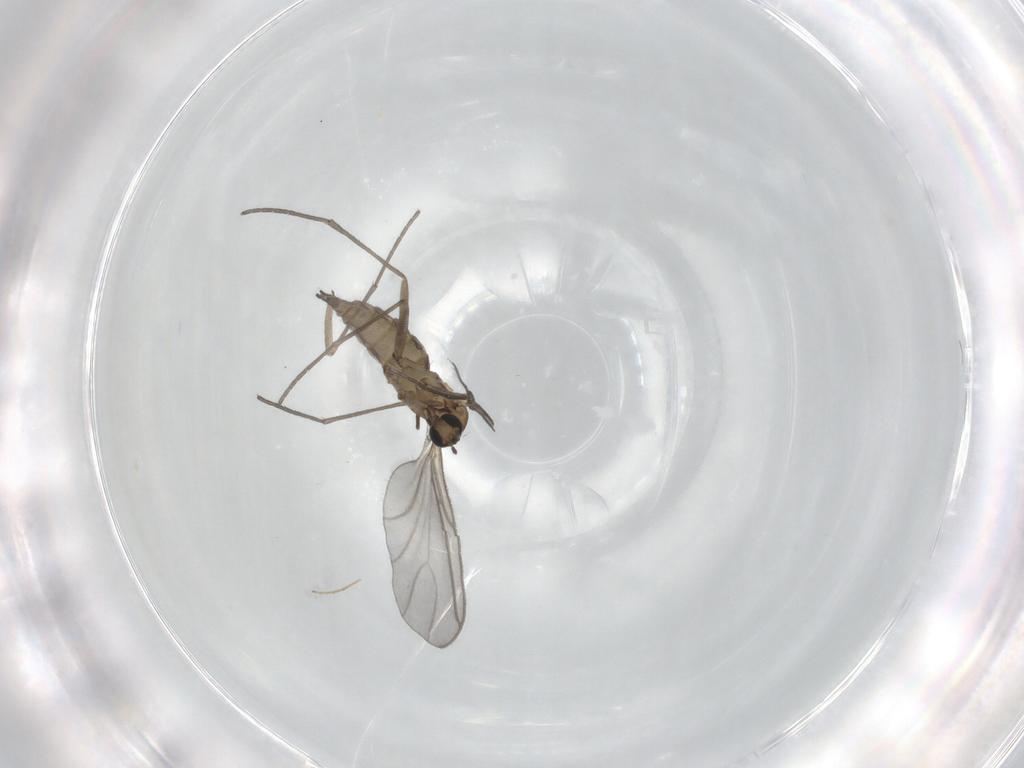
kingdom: Animalia
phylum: Arthropoda
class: Insecta
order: Diptera
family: Sciaridae
